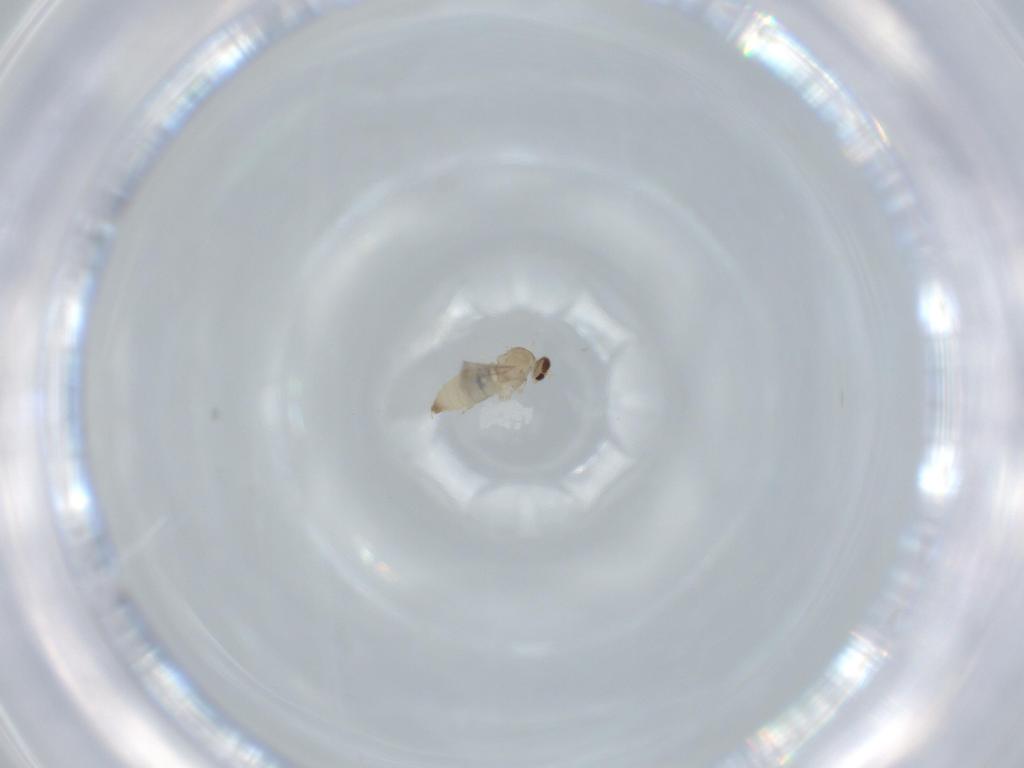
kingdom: Animalia
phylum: Arthropoda
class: Insecta
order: Diptera
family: Cecidomyiidae
